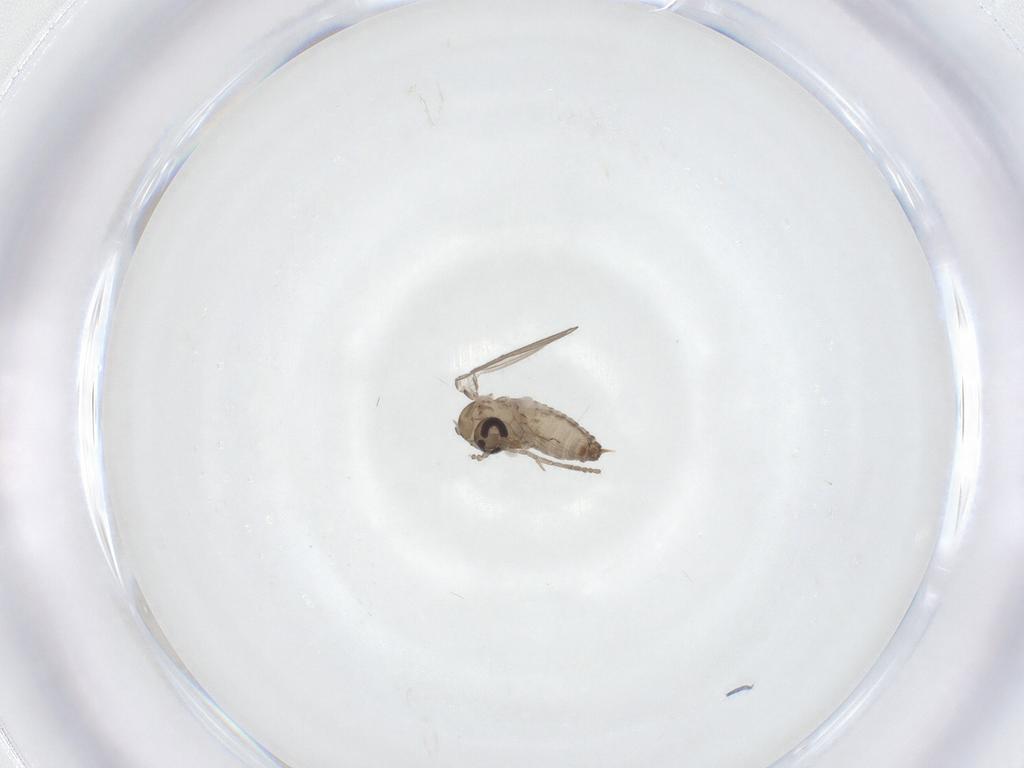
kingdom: Animalia
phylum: Arthropoda
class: Insecta
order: Diptera
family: Psychodidae
